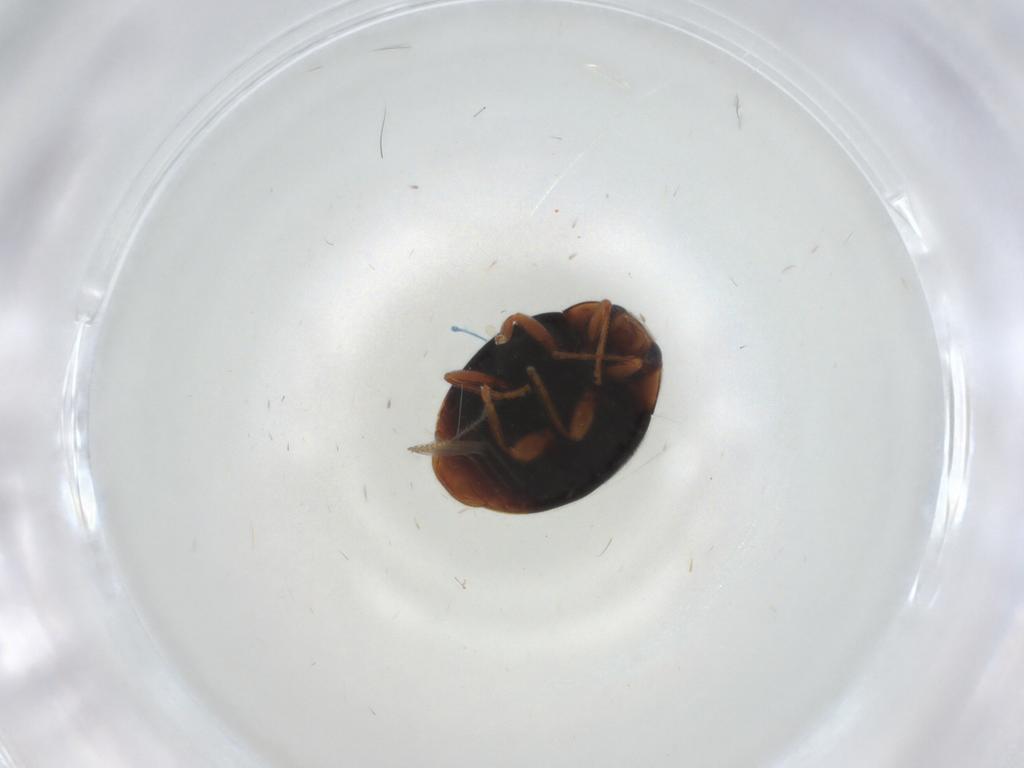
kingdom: Animalia
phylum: Arthropoda
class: Insecta
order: Coleoptera
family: Coccinellidae
